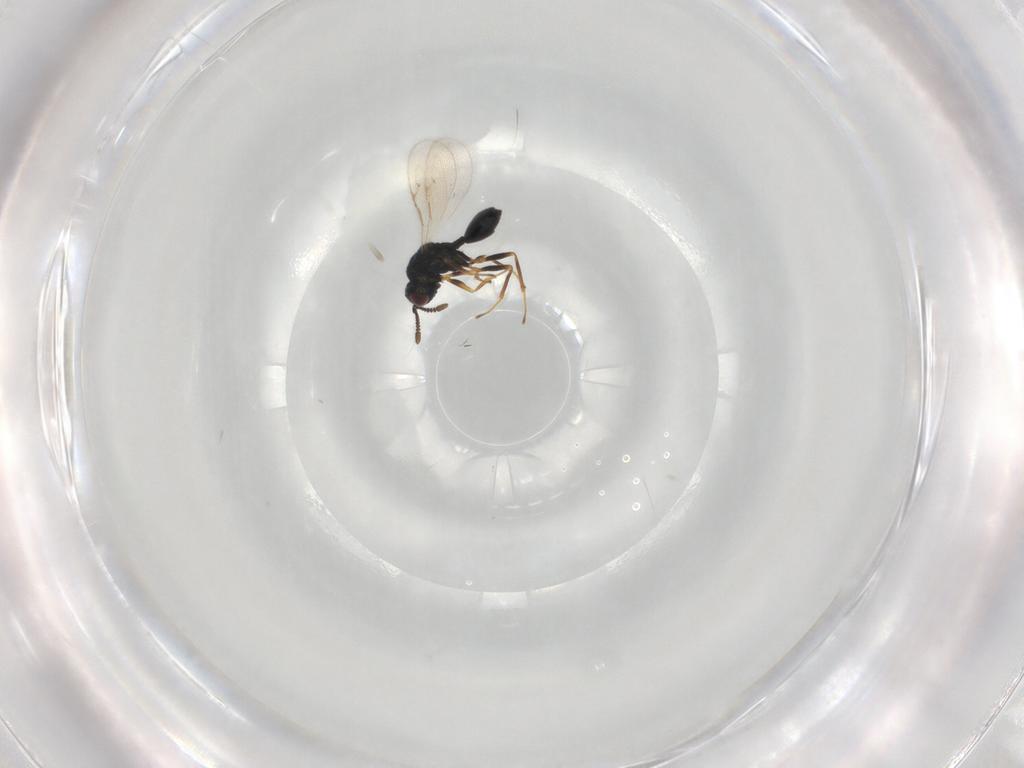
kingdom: Animalia
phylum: Arthropoda
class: Insecta
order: Hymenoptera
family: Chalcidoidea_incertae_sedis
